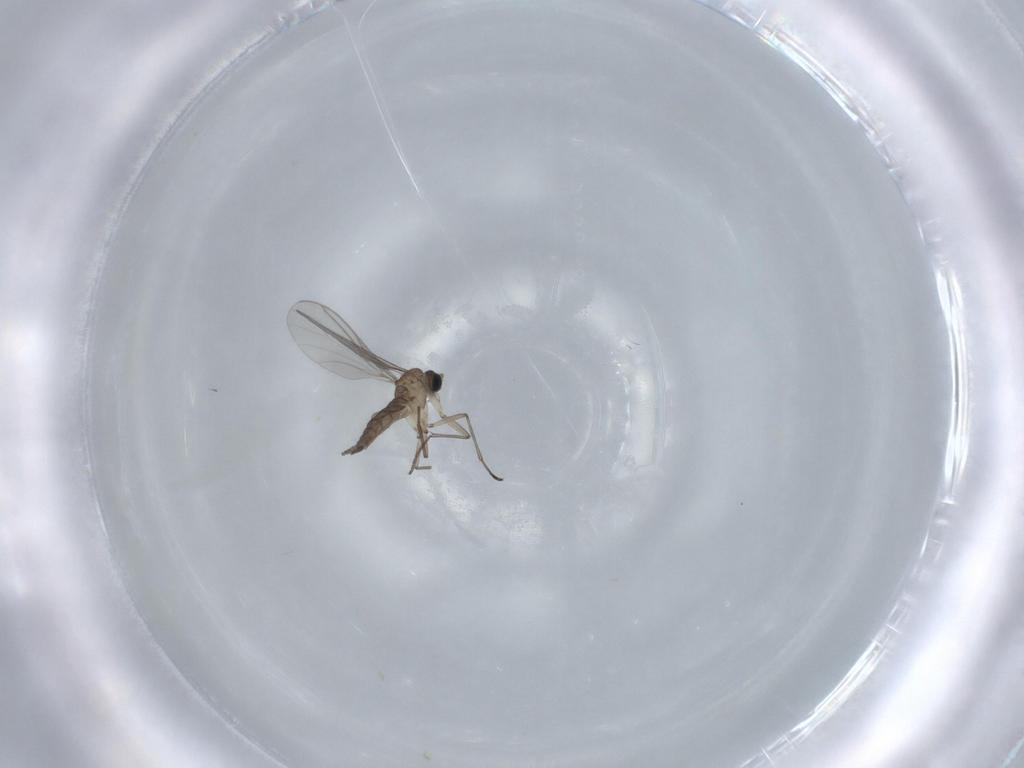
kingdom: Animalia
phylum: Arthropoda
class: Insecta
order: Diptera
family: Sciaridae
